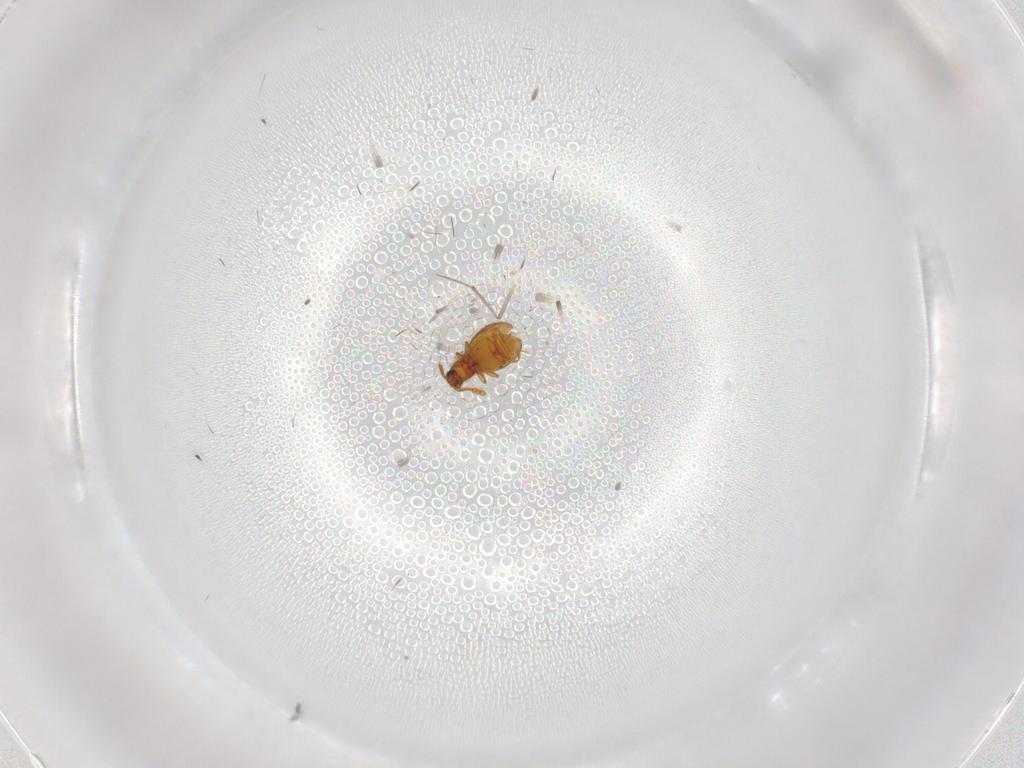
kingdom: Animalia
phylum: Arthropoda
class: Insecta
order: Coleoptera
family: Staphylinidae
